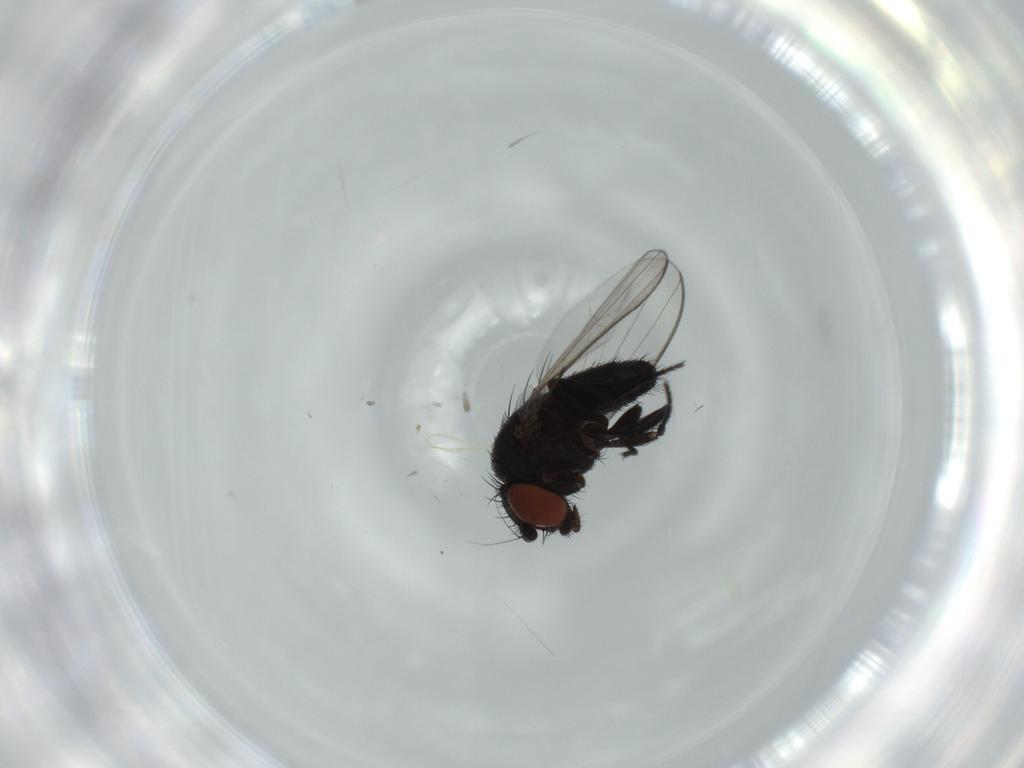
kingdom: Animalia
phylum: Arthropoda
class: Insecta
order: Diptera
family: Milichiidae
